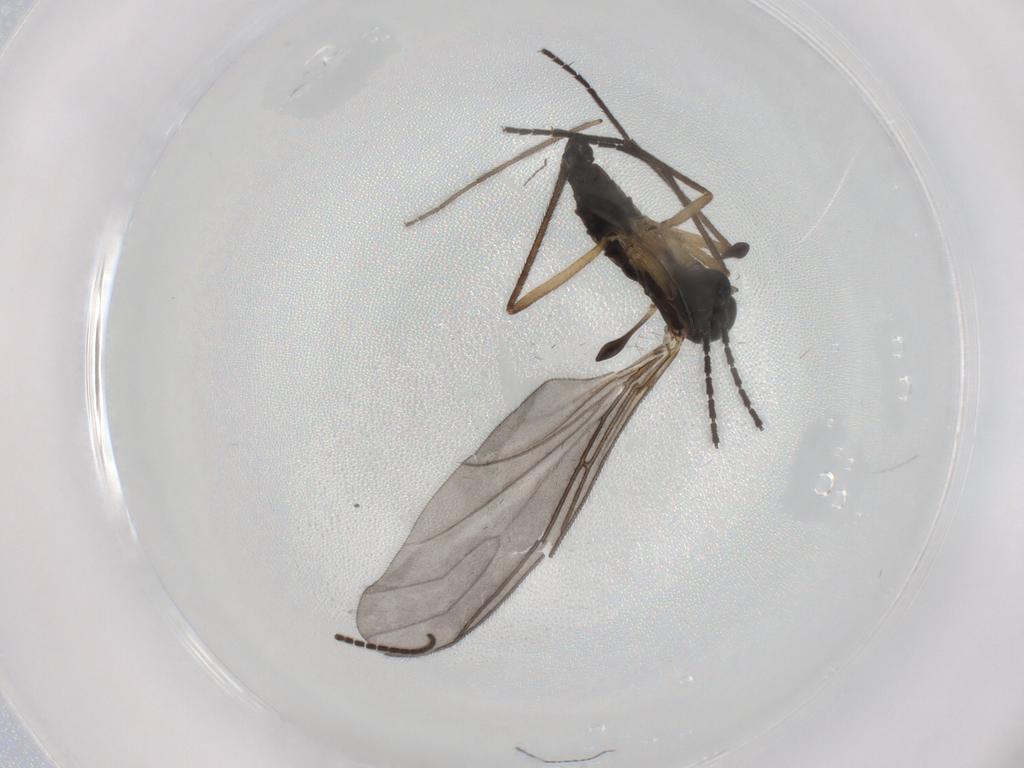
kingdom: Animalia
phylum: Arthropoda
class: Insecta
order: Diptera
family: Sciaridae
